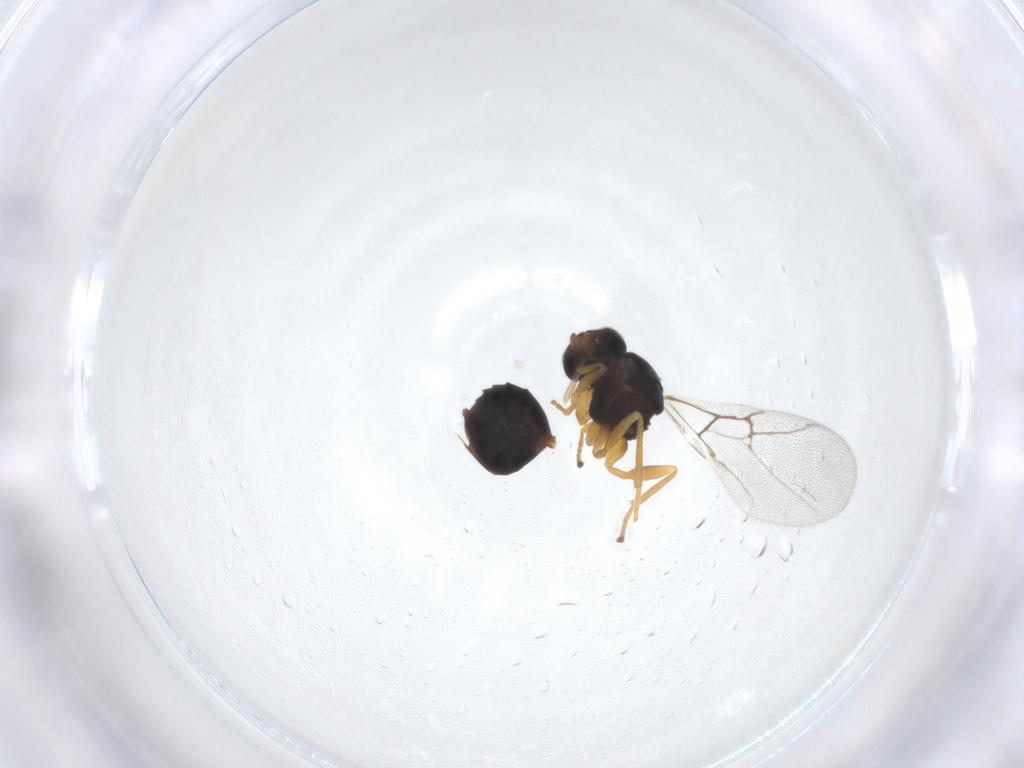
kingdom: Animalia
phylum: Arthropoda
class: Insecta
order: Hymenoptera
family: Cynipidae
